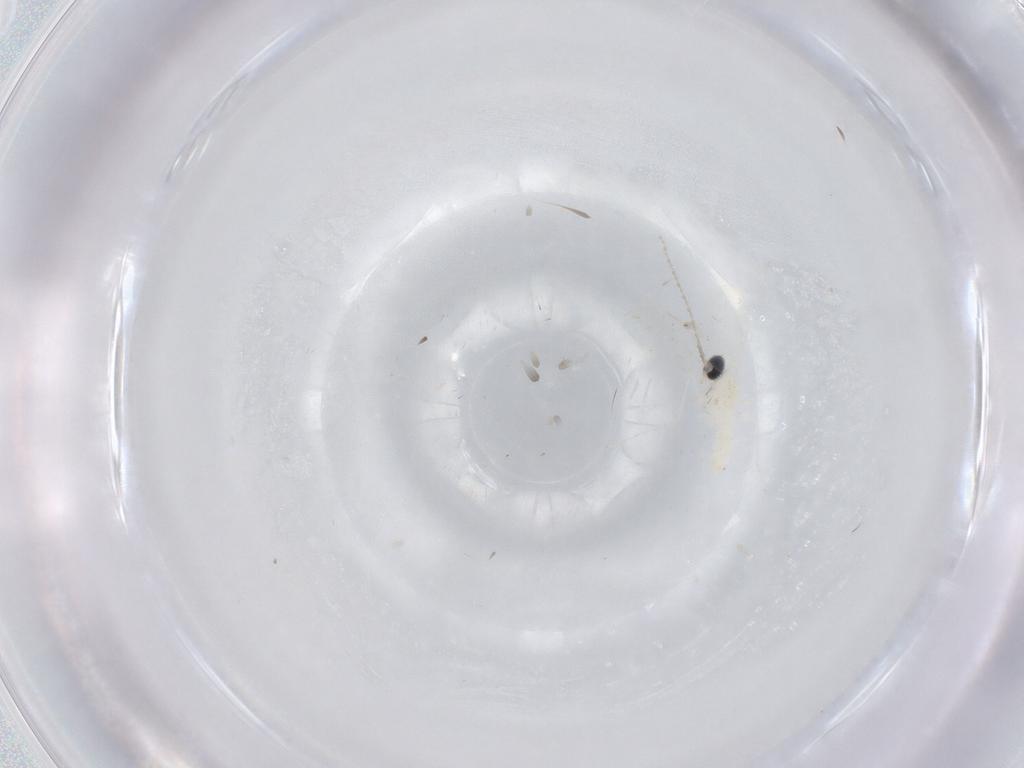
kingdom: Animalia
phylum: Arthropoda
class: Insecta
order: Diptera
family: Cecidomyiidae
